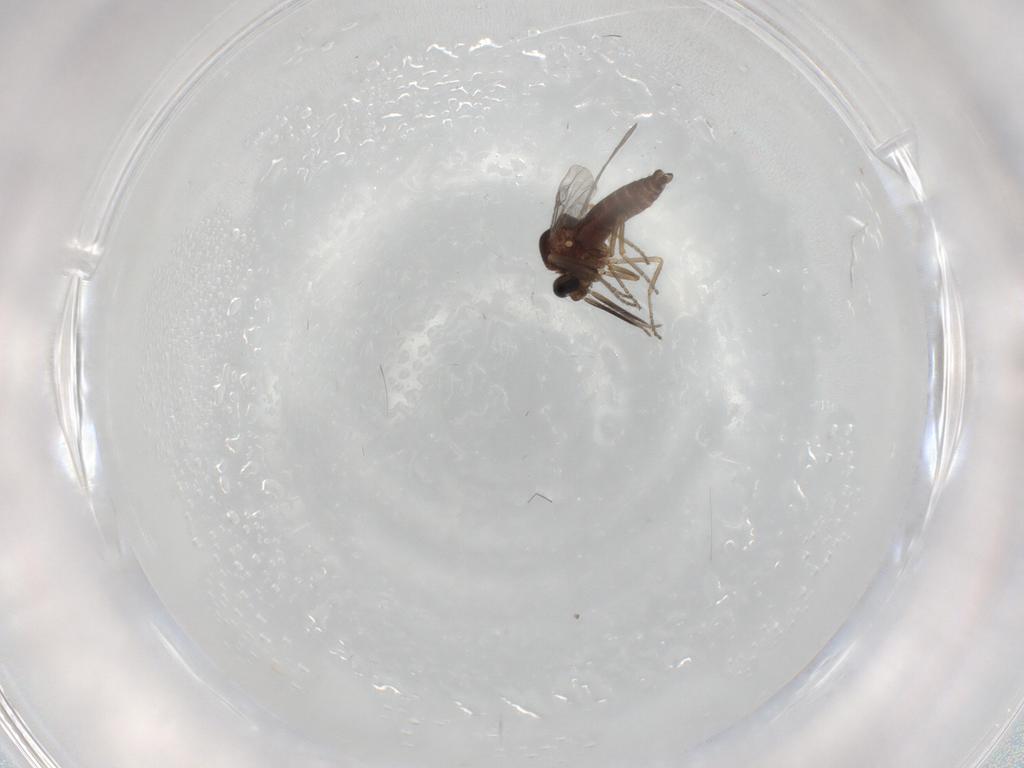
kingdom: Animalia
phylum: Arthropoda
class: Insecta
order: Diptera
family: Ceratopogonidae
